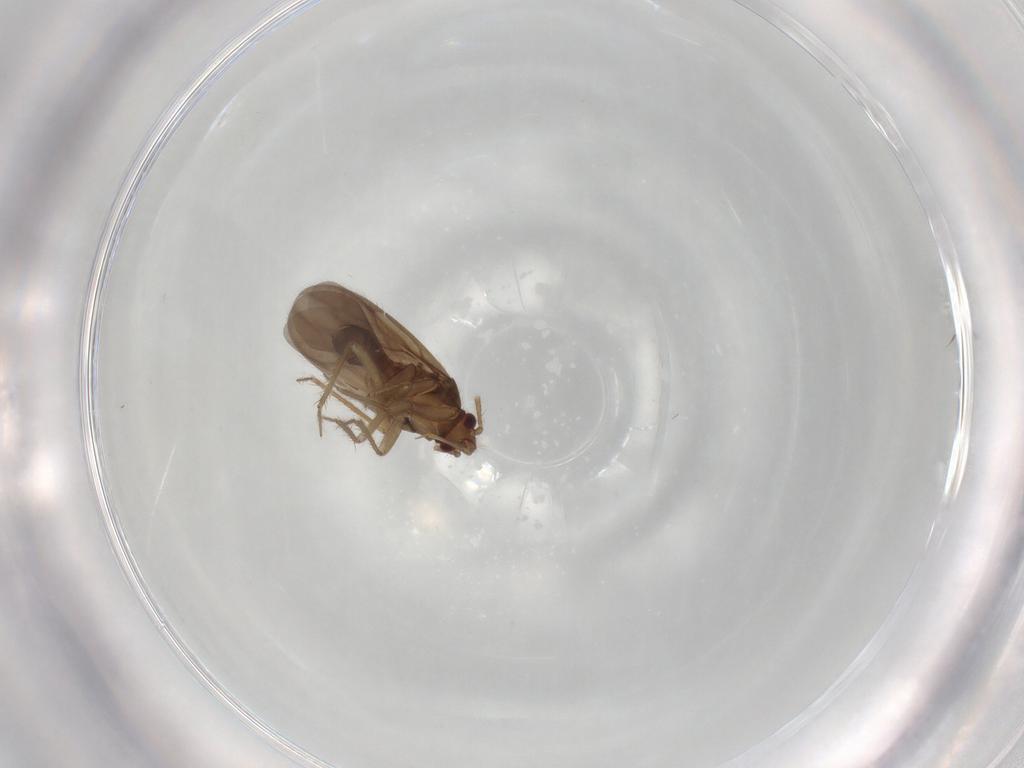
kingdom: Animalia
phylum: Arthropoda
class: Insecta
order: Hemiptera
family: Ceratocombidae
